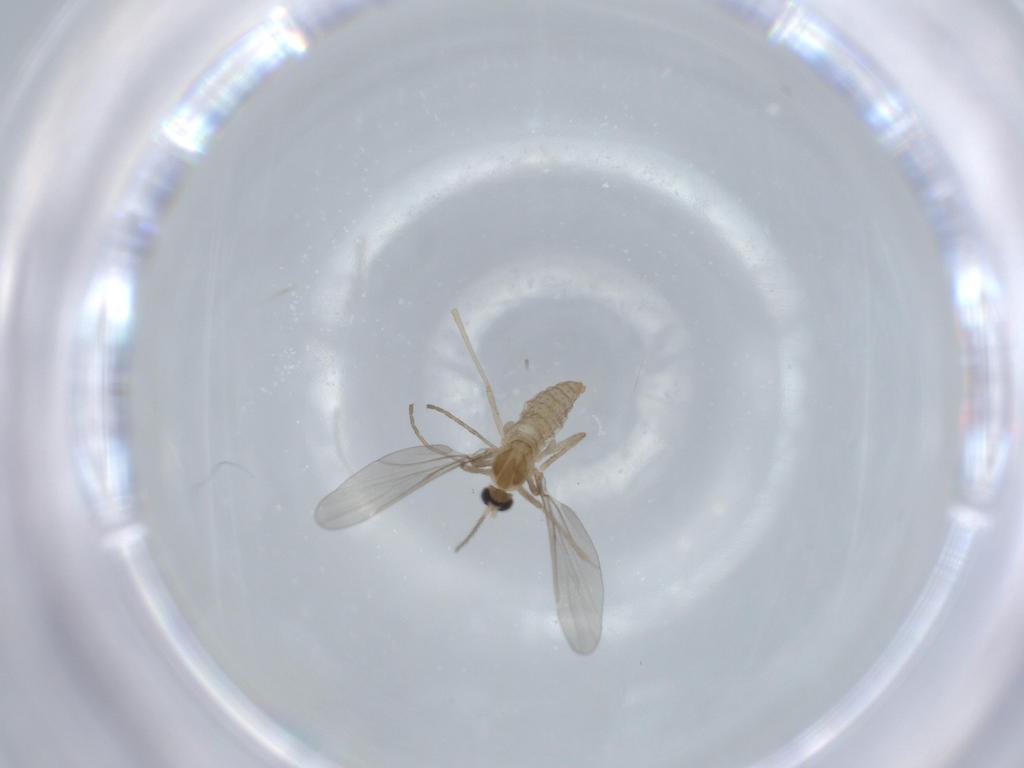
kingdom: Animalia
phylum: Arthropoda
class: Insecta
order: Diptera
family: Cecidomyiidae
